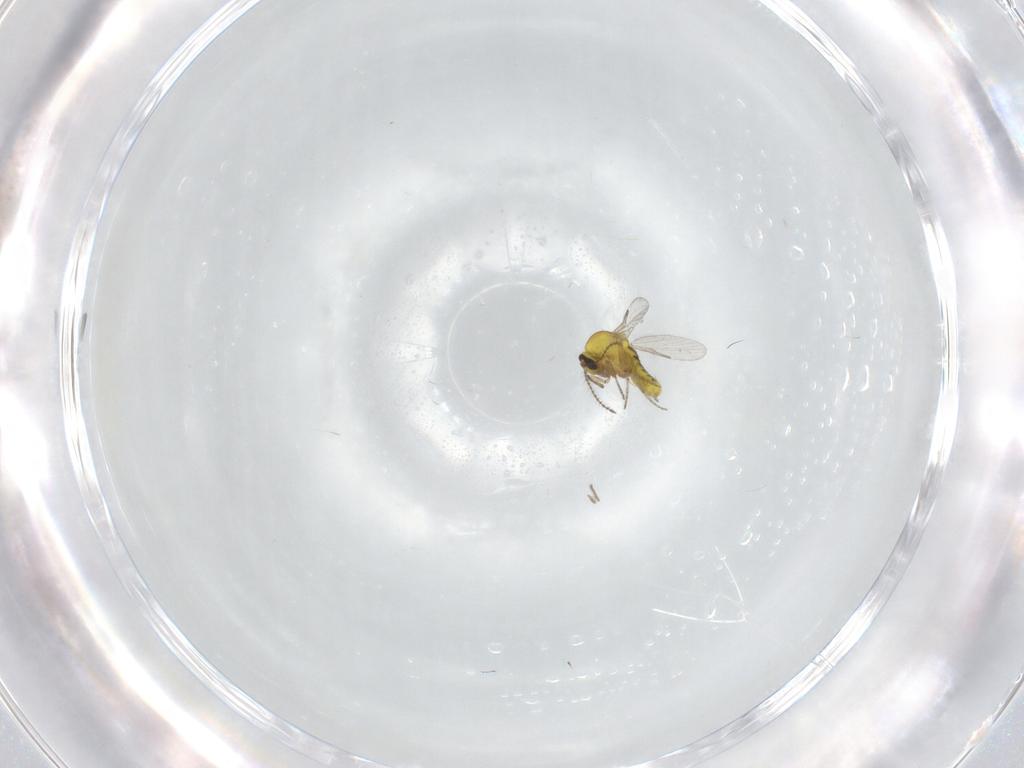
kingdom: Animalia
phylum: Arthropoda
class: Insecta
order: Diptera
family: Ceratopogonidae
